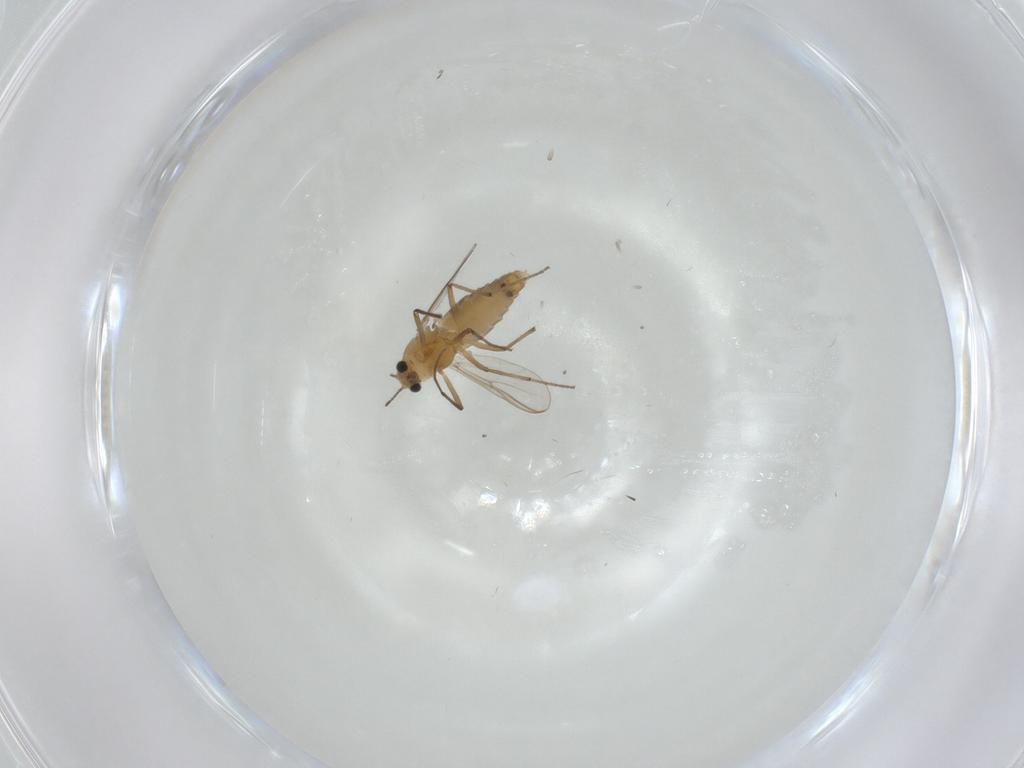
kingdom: Animalia
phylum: Arthropoda
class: Insecta
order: Diptera
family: Chironomidae
